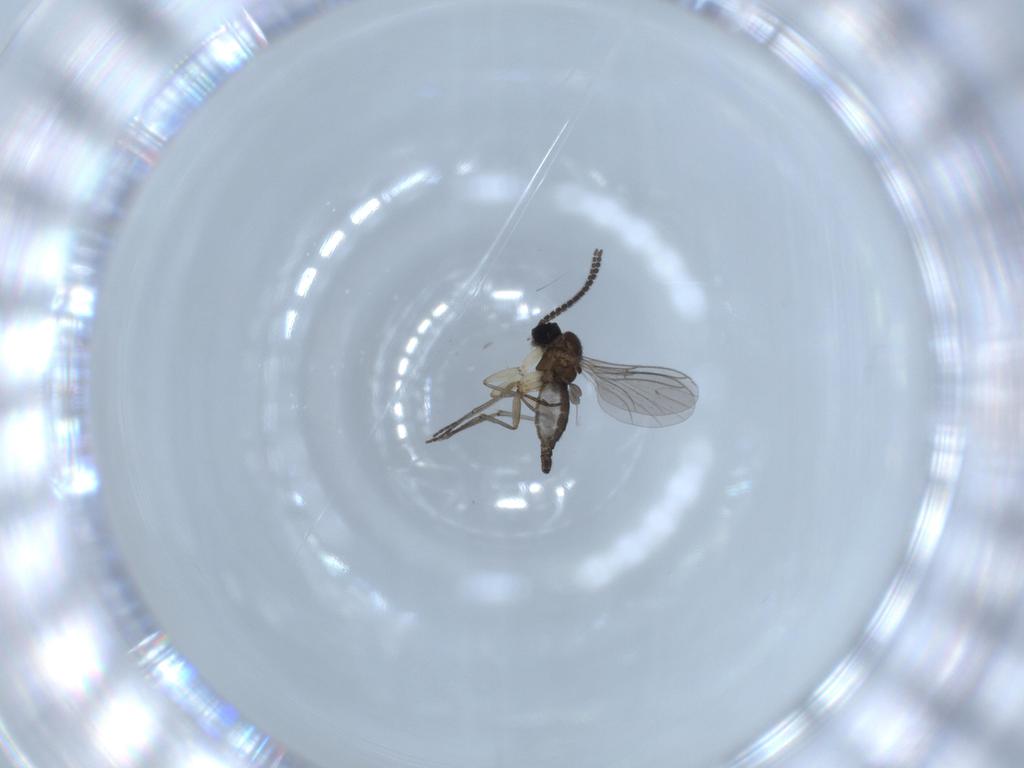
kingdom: Animalia
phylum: Arthropoda
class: Insecta
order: Diptera
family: Sciaridae
